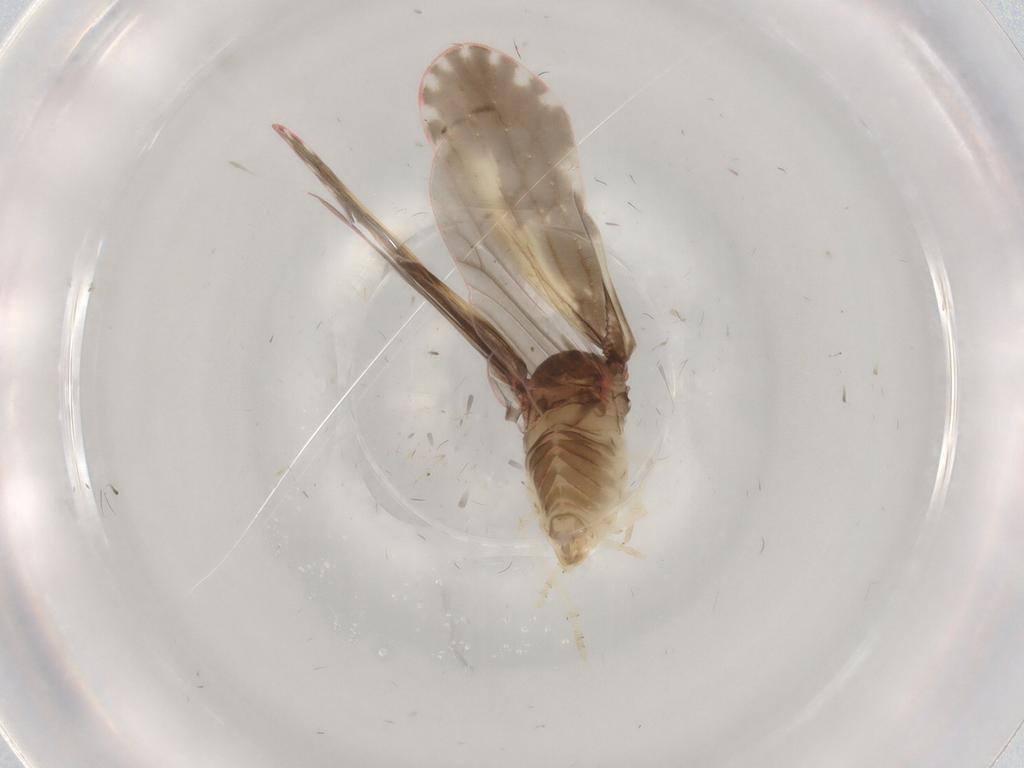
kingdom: Animalia
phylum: Arthropoda
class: Insecta
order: Hemiptera
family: Derbidae
